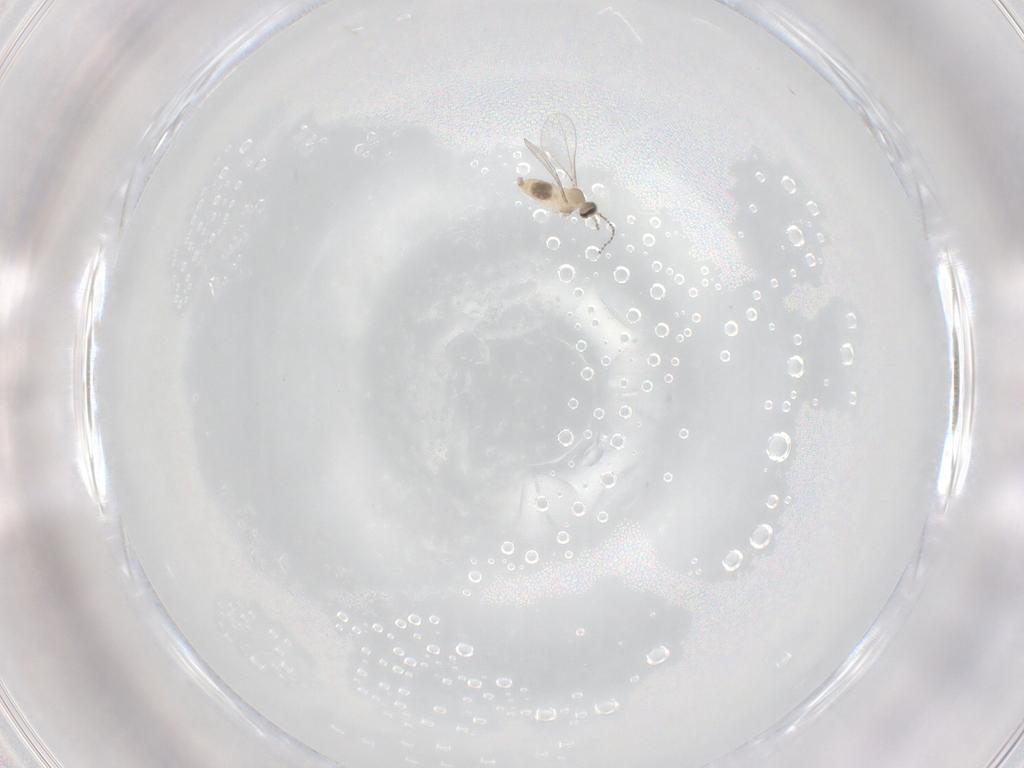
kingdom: Animalia
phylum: Arthropoda
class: Insecta
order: Diptera
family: Cecidomyiidae
